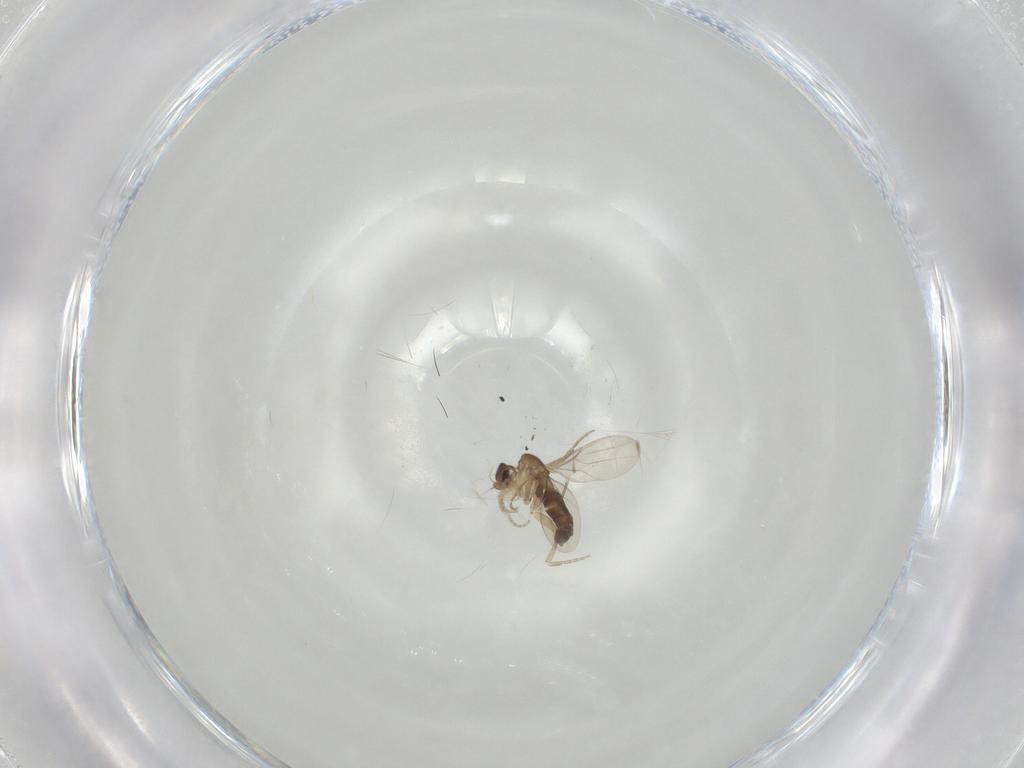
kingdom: Animalia
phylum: Arthropoda
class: Insecta
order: Diptera
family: Phoridae
